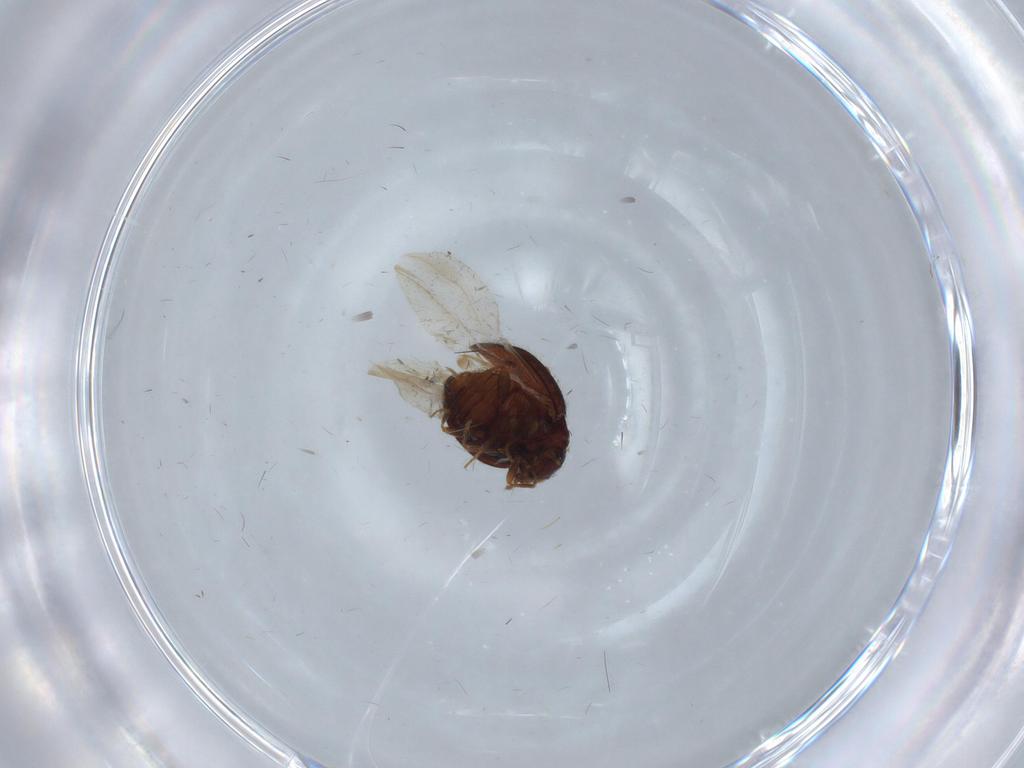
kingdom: Animalia
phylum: Arthropoda
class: Insecta
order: Coleoptera
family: Anamorphidae
